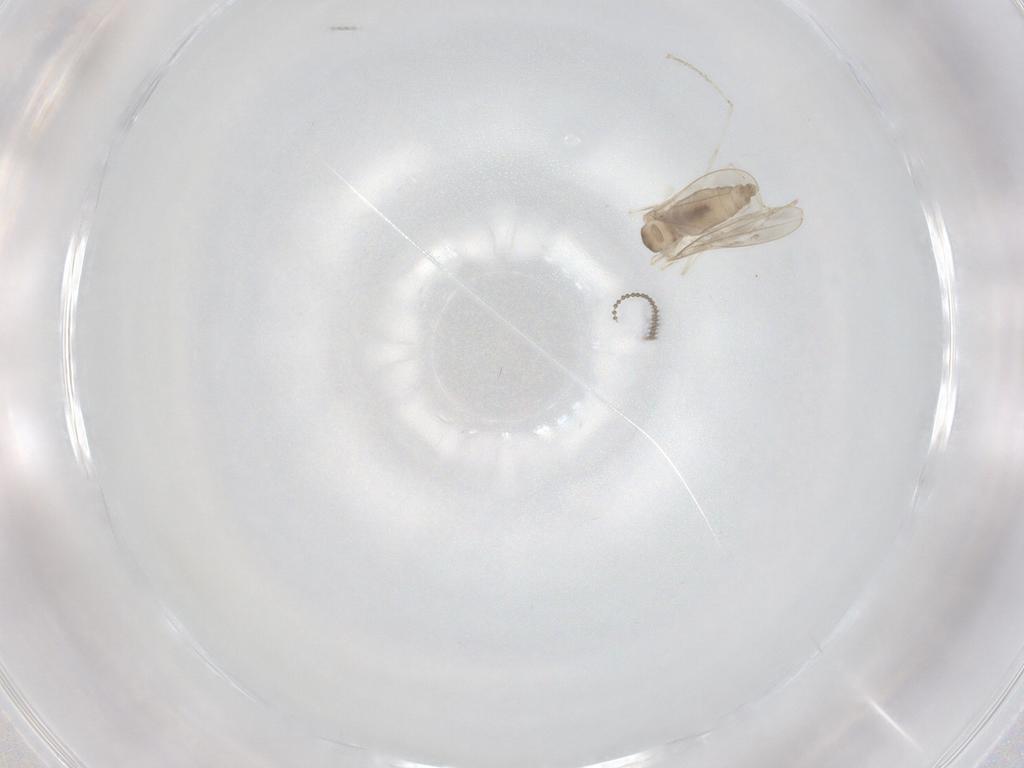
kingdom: Animalia
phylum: Arthropoda
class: Insecta
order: Diptera
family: Cecidomyiidae
